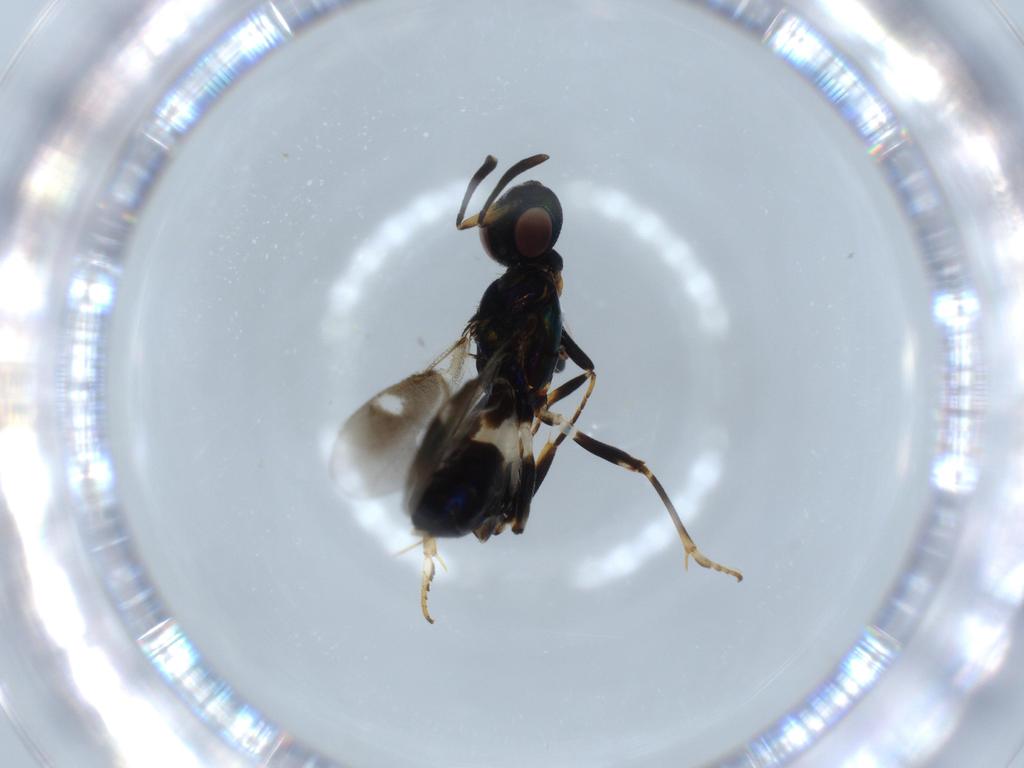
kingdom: Animalia
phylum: Arthropoda
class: Insecta
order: Hymenoptera
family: Eupelmidae
